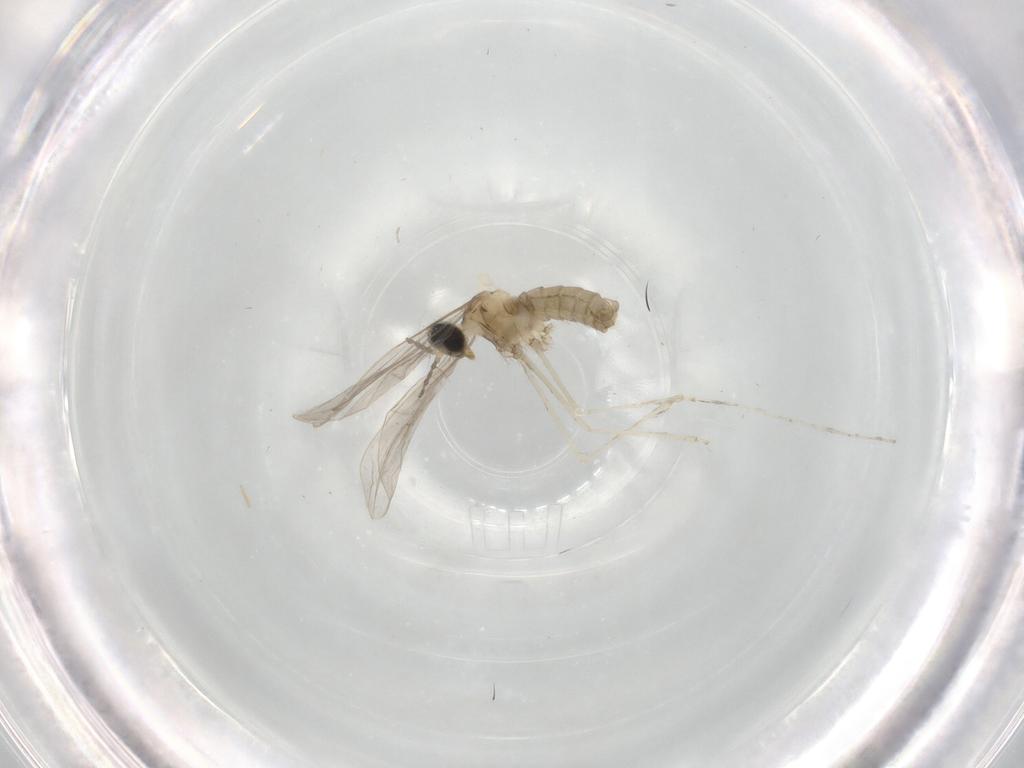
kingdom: Animalia
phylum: Arthropoda
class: Insecta
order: Diptera
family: Cecidomyiidae
